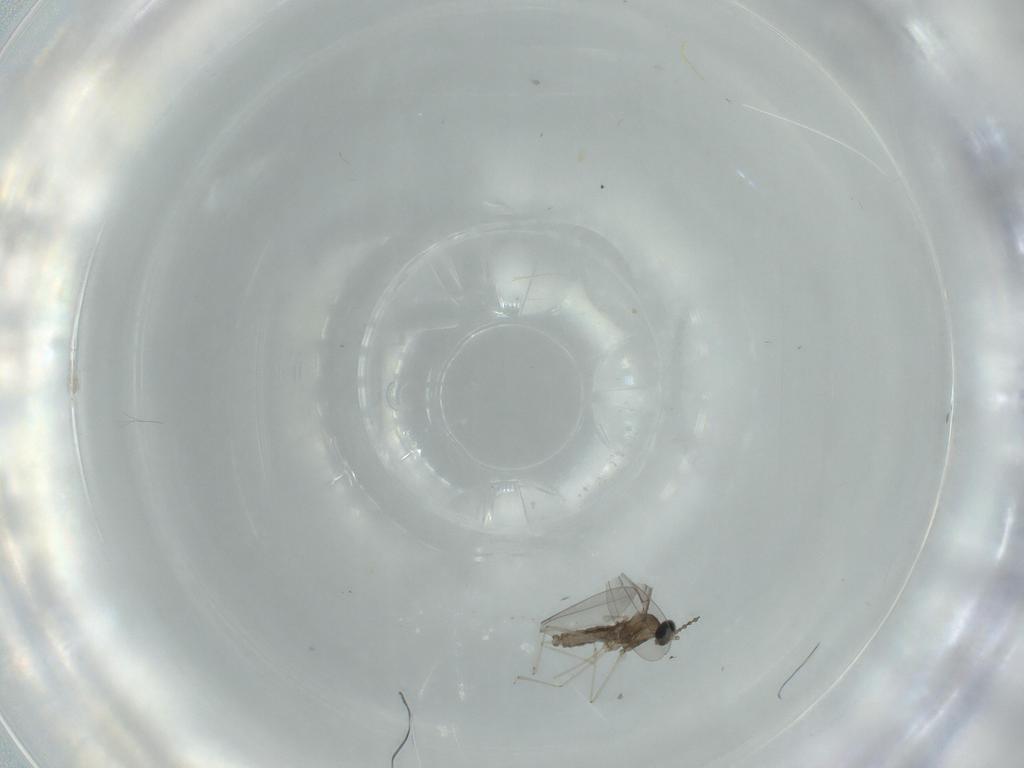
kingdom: Animalia
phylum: Arthropoda
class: Insecta
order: Diptera
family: Cecidomyiidae
